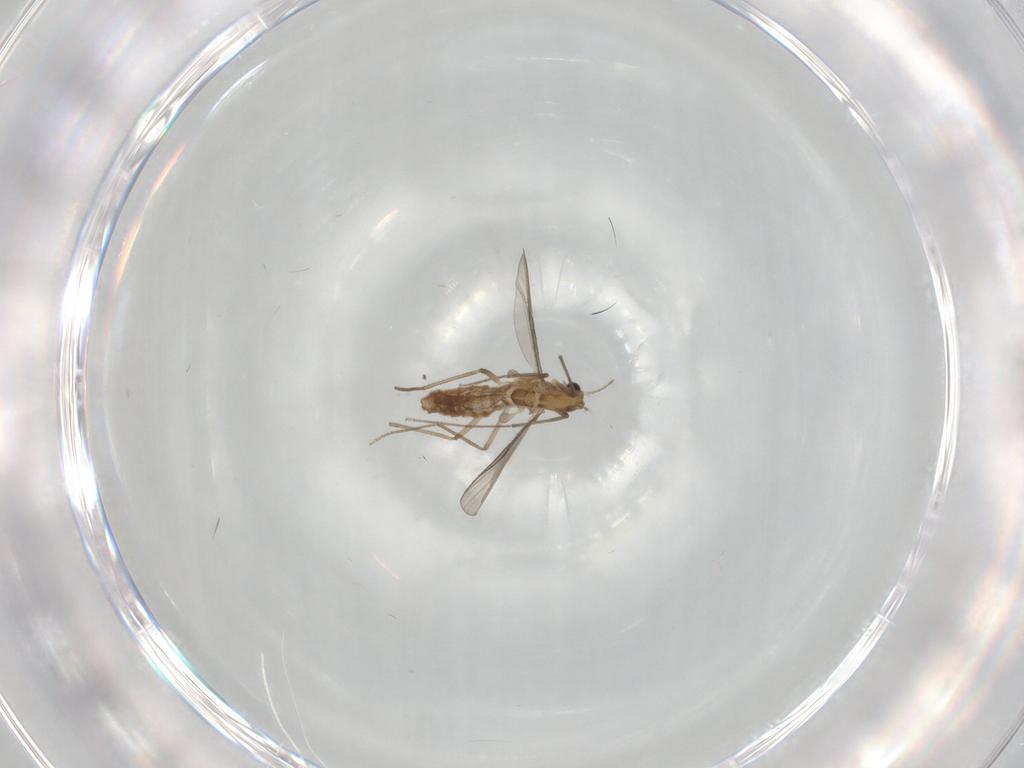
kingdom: Animalia
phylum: Arthropoda
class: Insecta
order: Diptera
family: Chironomidae
